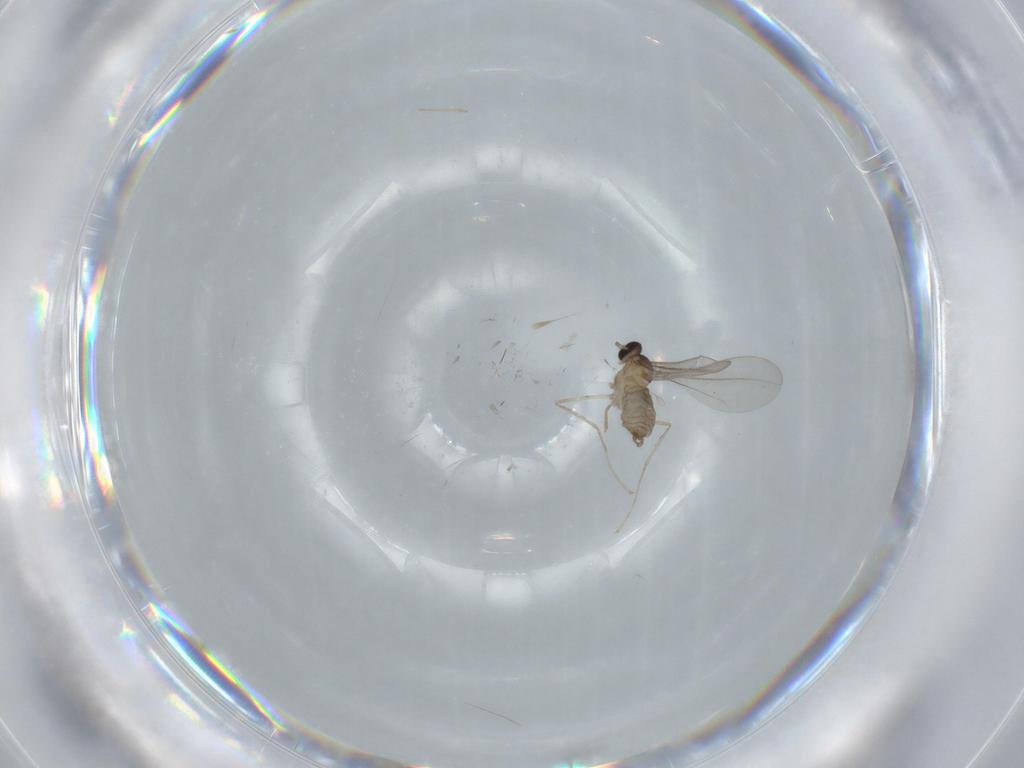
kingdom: Animalia
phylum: Arthropoda
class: Insecta
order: Diptera
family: Cecidomyiidae
